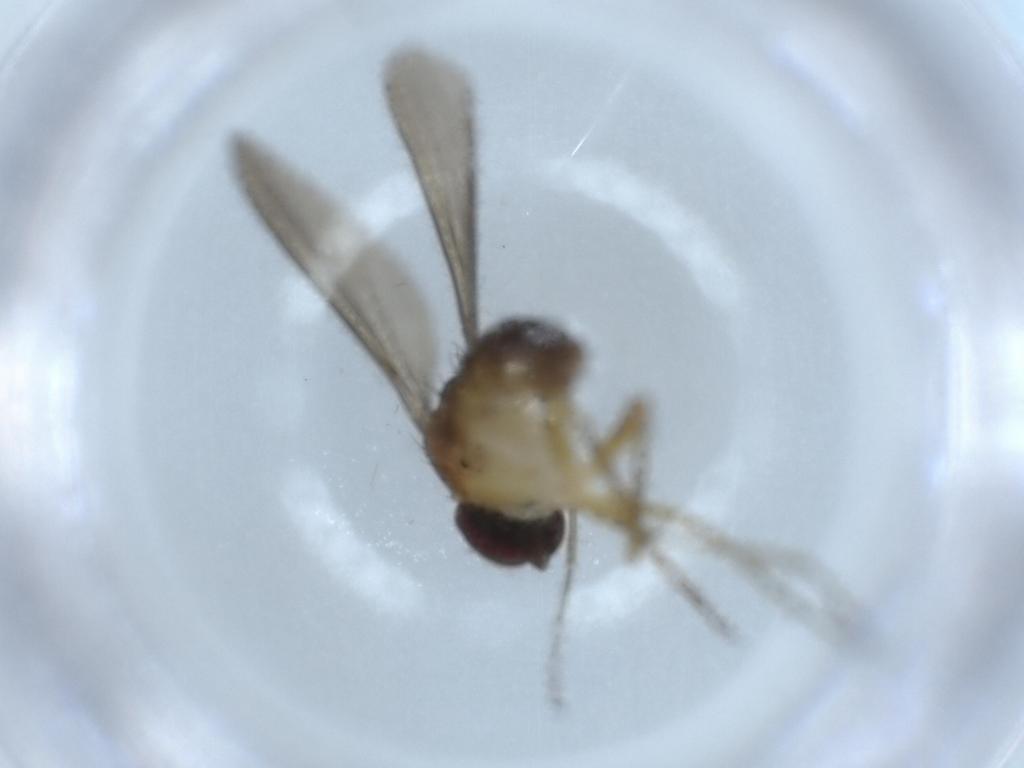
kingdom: Animalia
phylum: Arthropoda
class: Insecta
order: Diptera
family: Dolichopodidae
